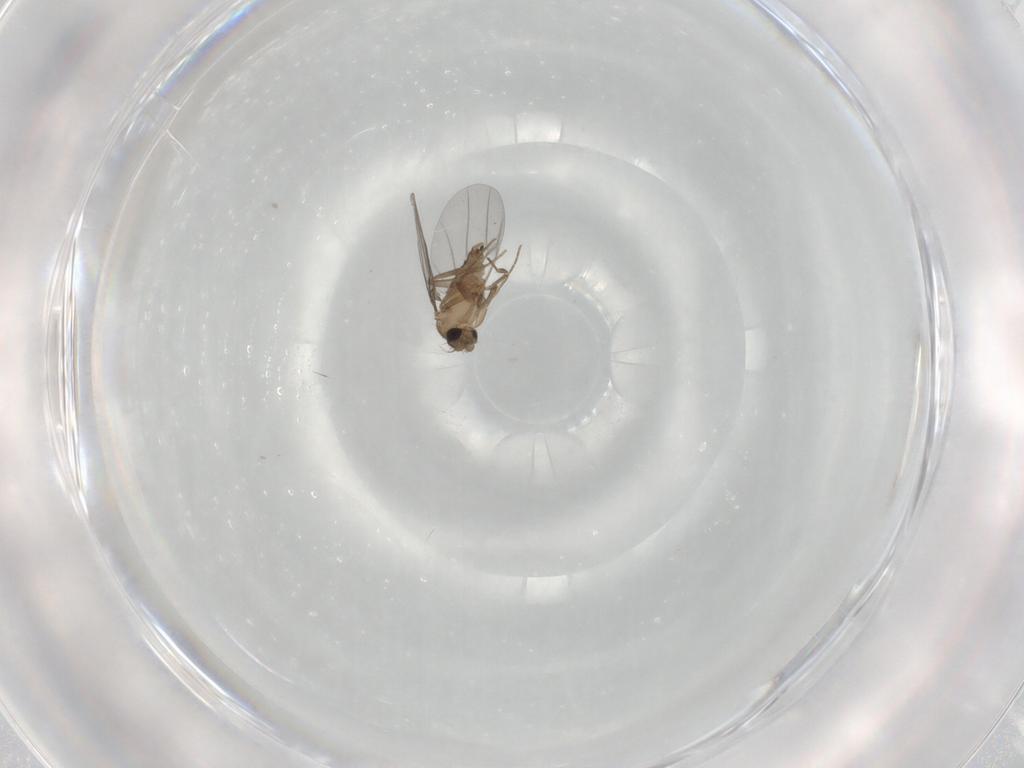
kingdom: Animalia
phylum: Arthropoda
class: Insecta
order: Diptera
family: Cecidomyiidae
